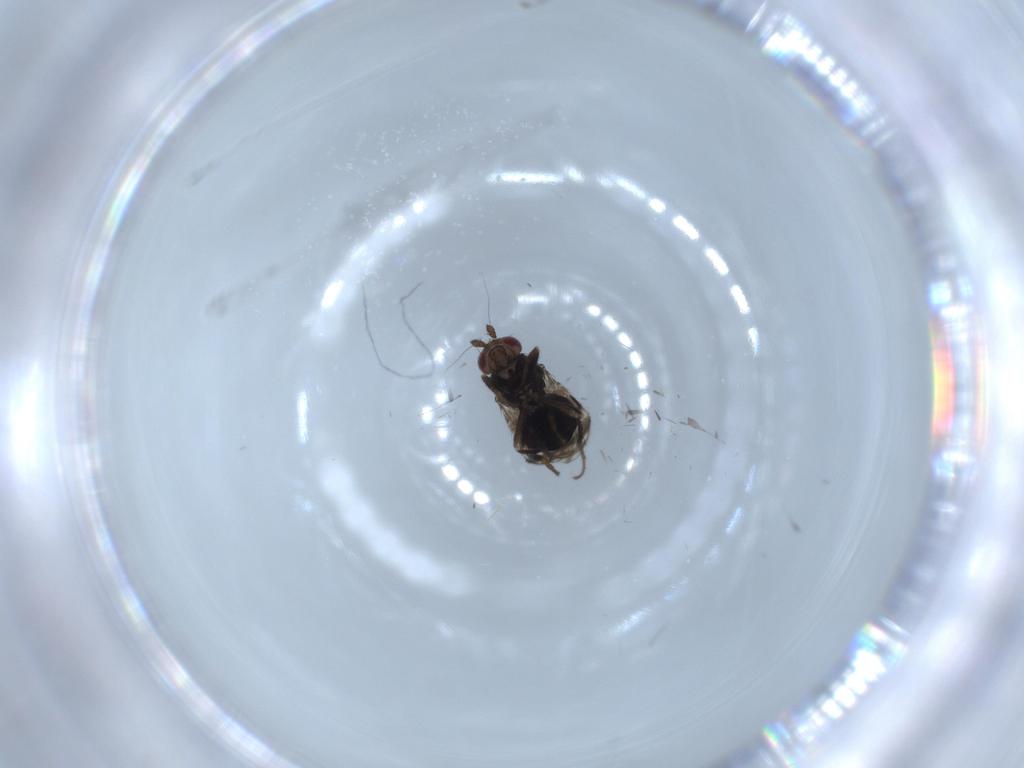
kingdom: Animalia
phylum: Arthropoda
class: Insecta
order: Diptera
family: Sphaeroceridae
